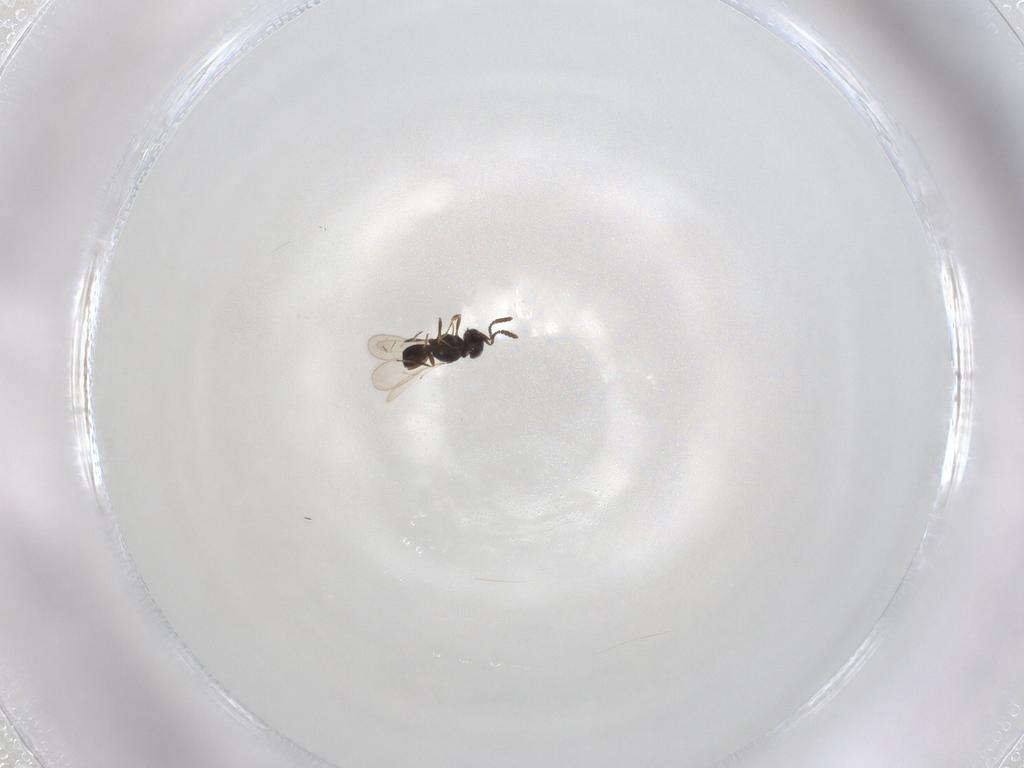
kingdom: Animalia
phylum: Arthropoda
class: Insecta
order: Hymenoptera
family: Scelionidae
